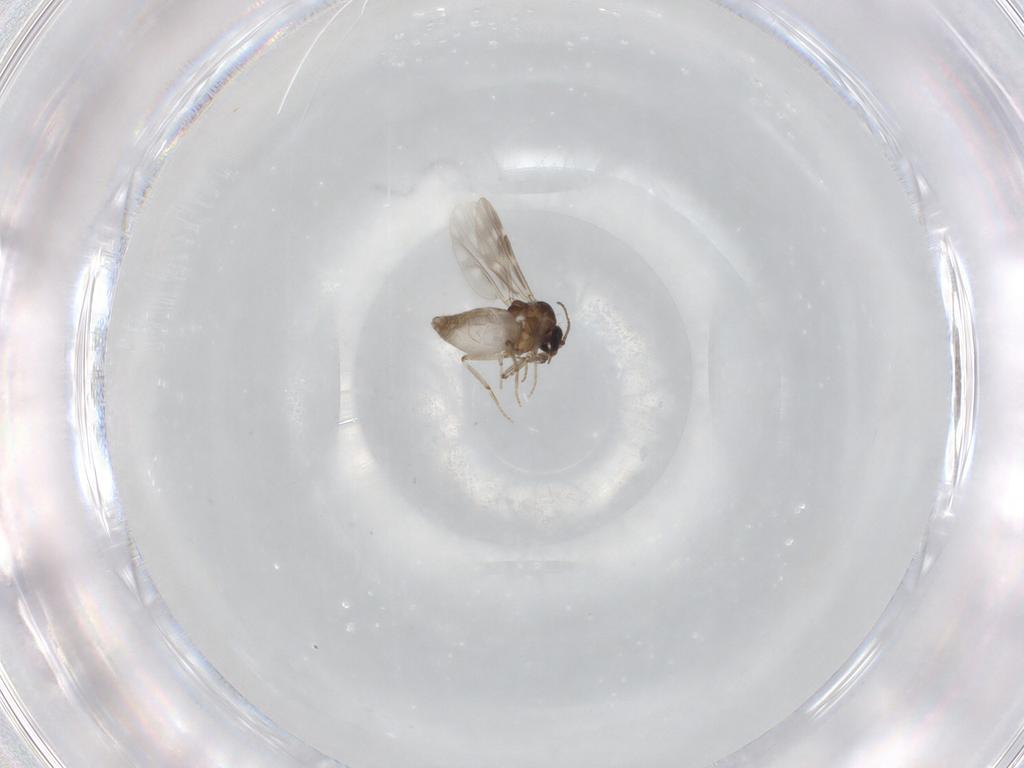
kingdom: Animalia
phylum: Arthropoda
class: Insecta
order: Diptera
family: Ceratopogonidae
